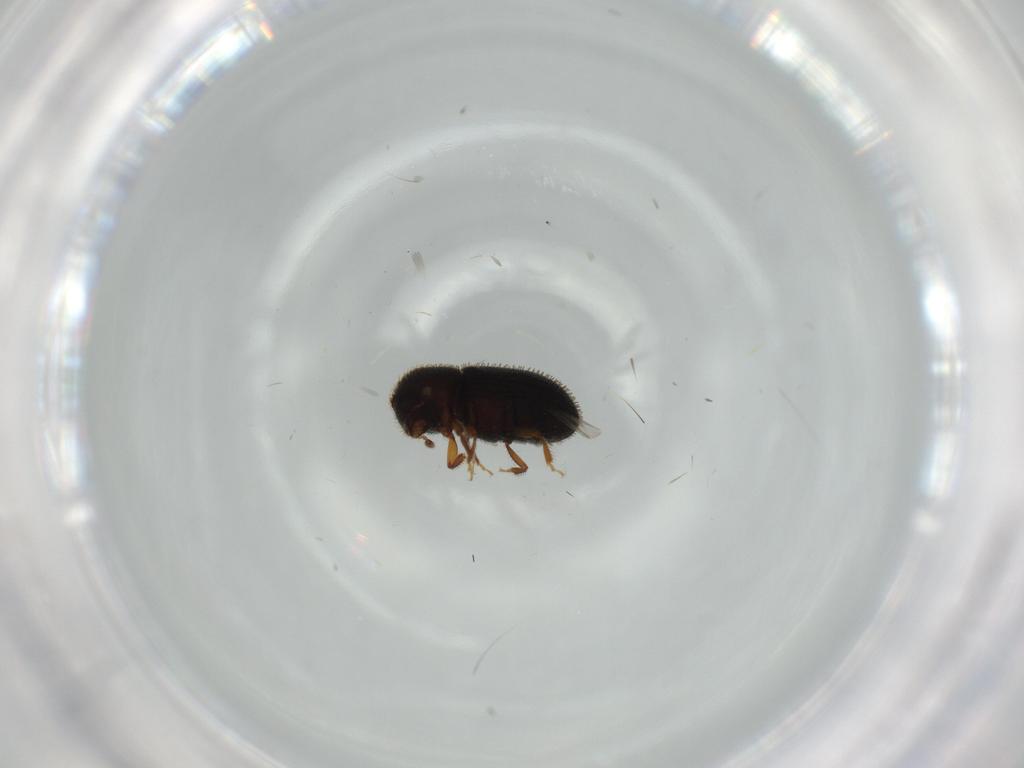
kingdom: Animalia
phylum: Arthropoda
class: Insecta
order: Coleoptera
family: Curculionidae
